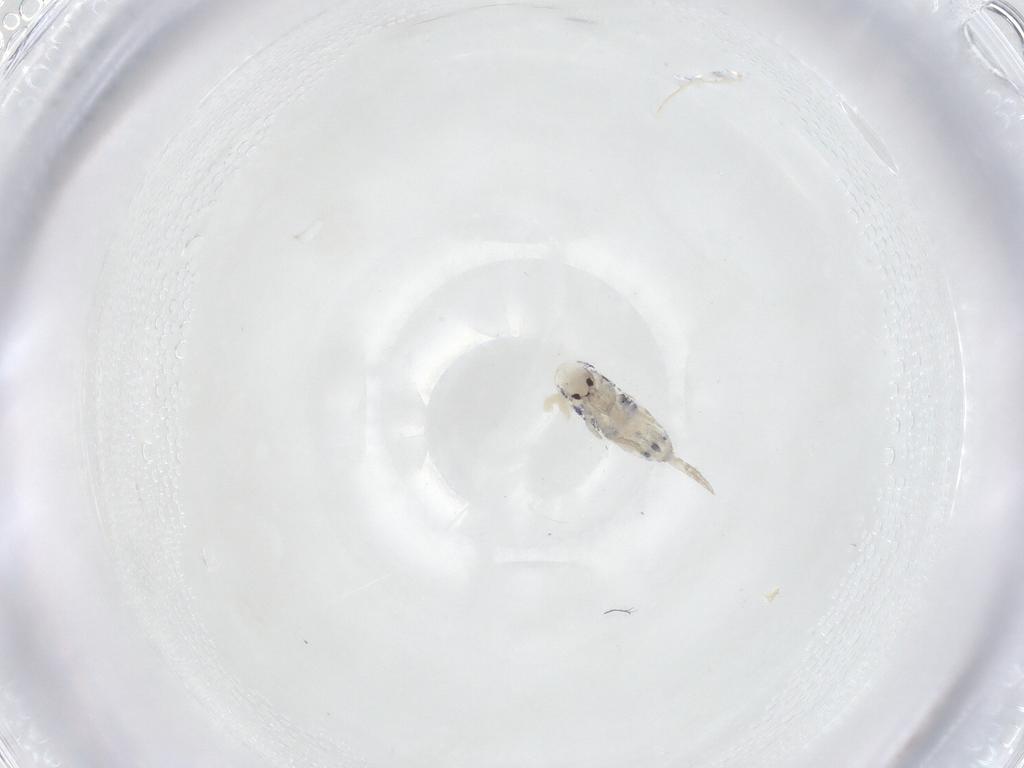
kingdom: Animalia
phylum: Arthropoda
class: Collembola
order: Entomobryomorpha
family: Entomobryidae
